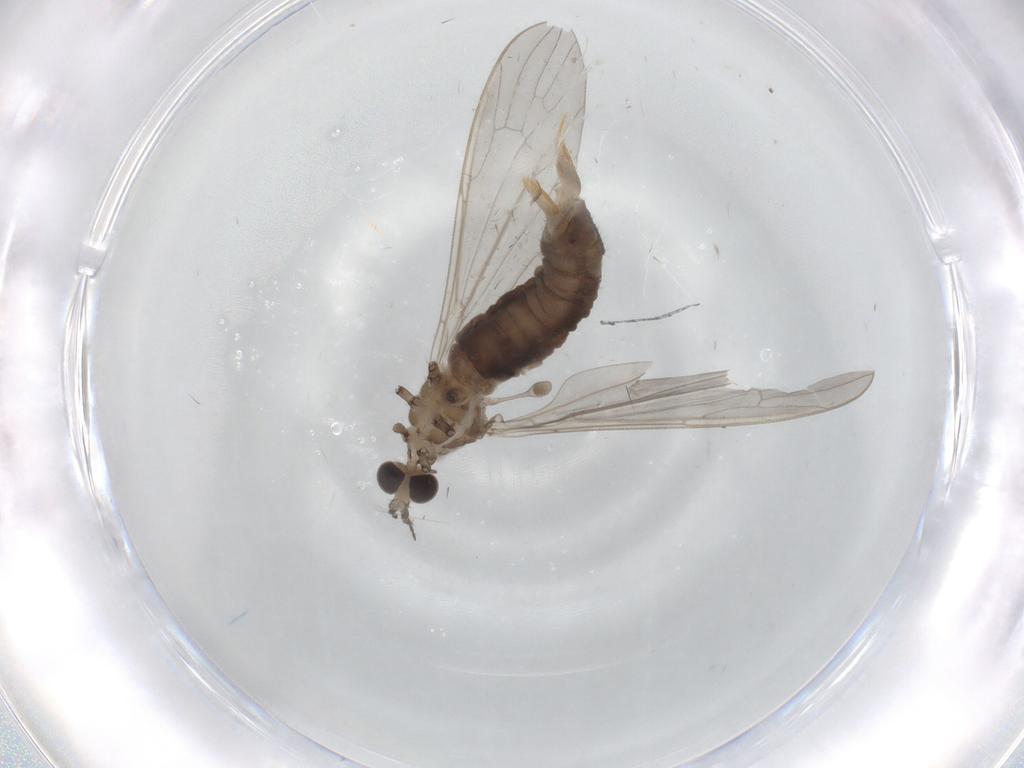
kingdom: Animalia
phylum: Arthropoda
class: Insecta
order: Diptera
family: Limoniidae
